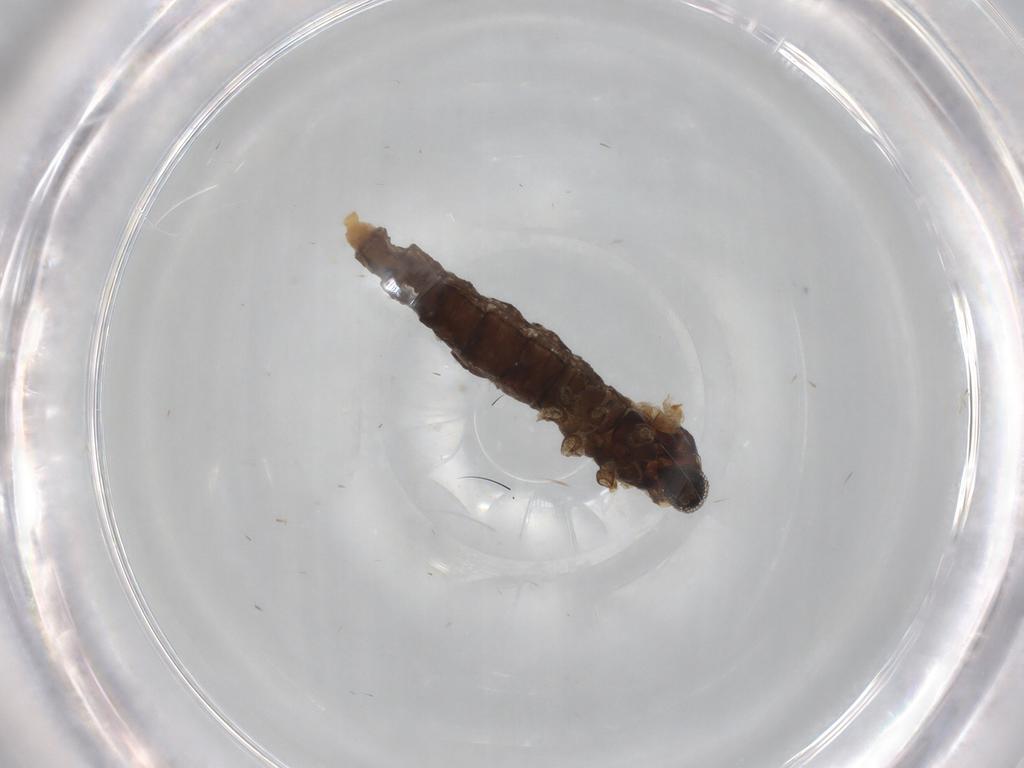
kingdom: Animalia
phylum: Arthropoda
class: Insecta
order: Diptera
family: Cecidomyiidae
